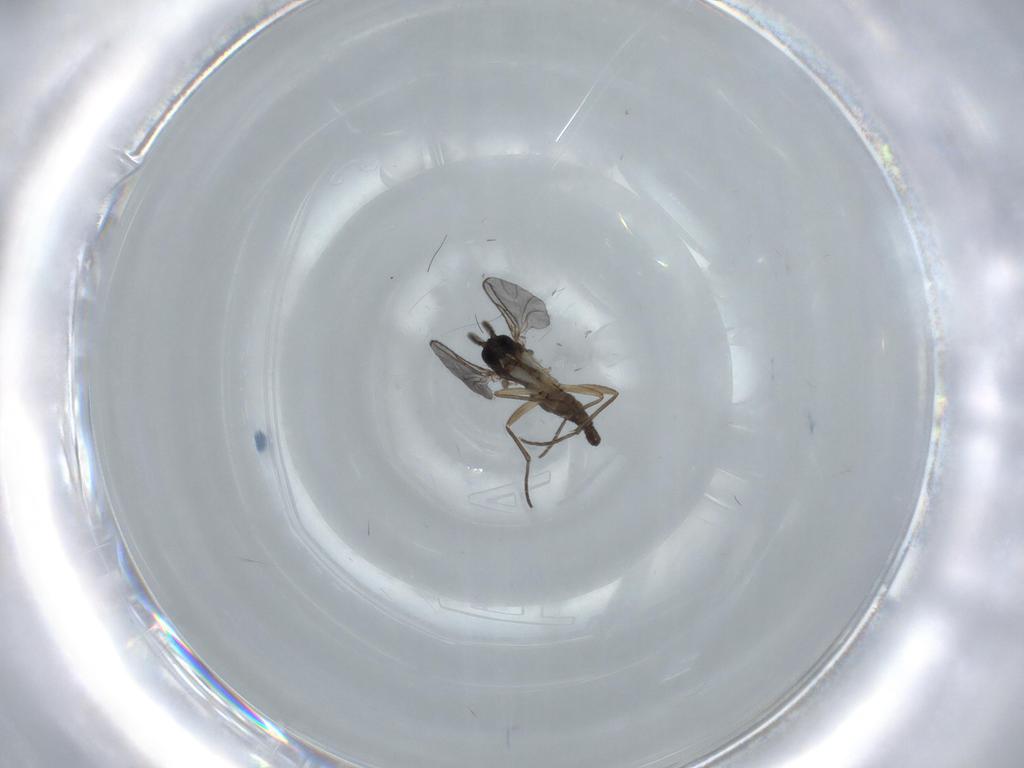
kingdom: Animalia
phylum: Arthropoda
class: Insecta
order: Diptera
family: Sciaridae
